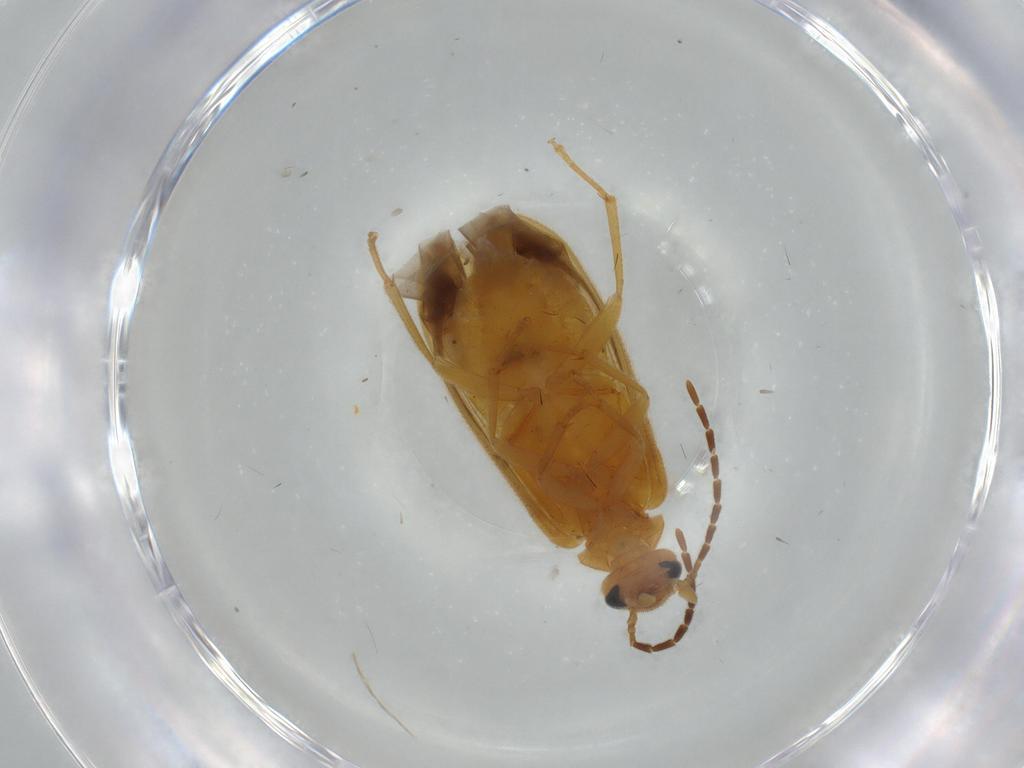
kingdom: Animalia
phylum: Arthropoda
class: Insecta
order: Coleoptera
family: Scraptiidae
